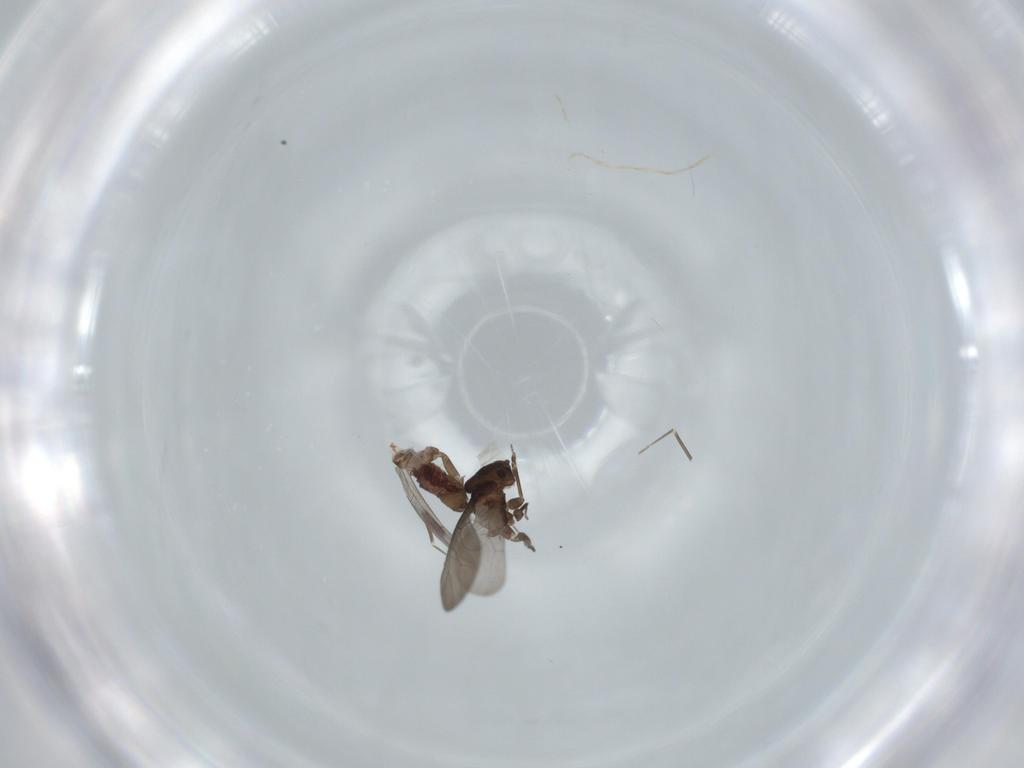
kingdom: Animalia
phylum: Arthropoda
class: Insecta
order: Psocodea
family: Lepidopsocidae
